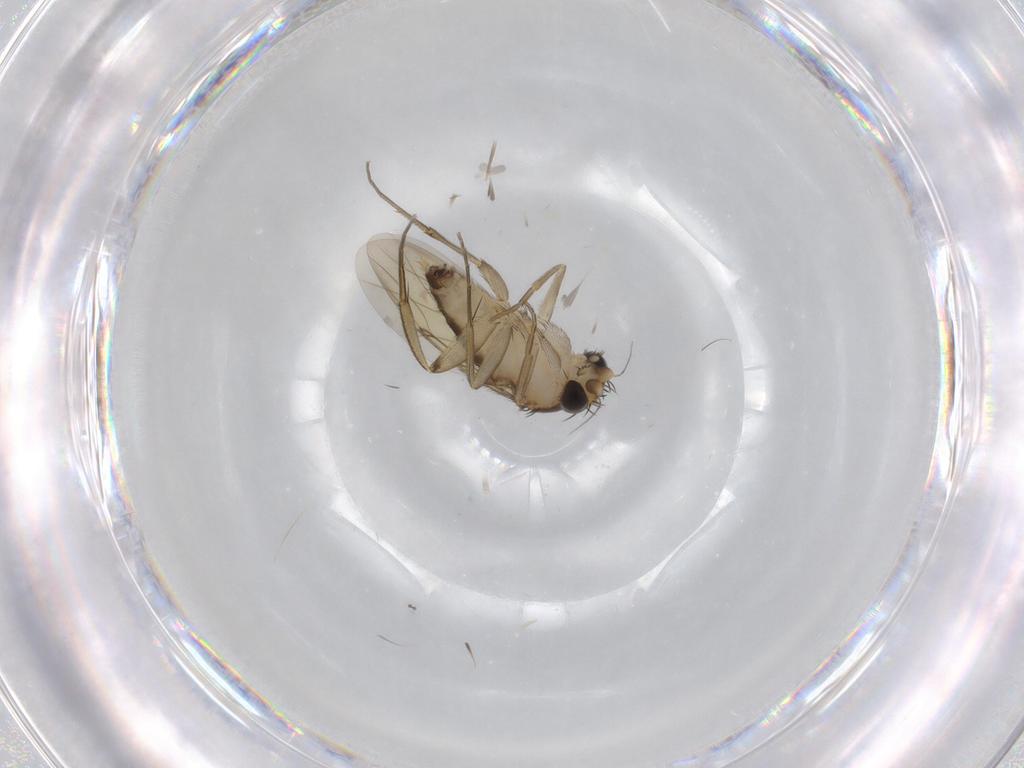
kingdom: Animalia
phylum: Arthropoda
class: Insecta
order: Diptera
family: Phoridae
